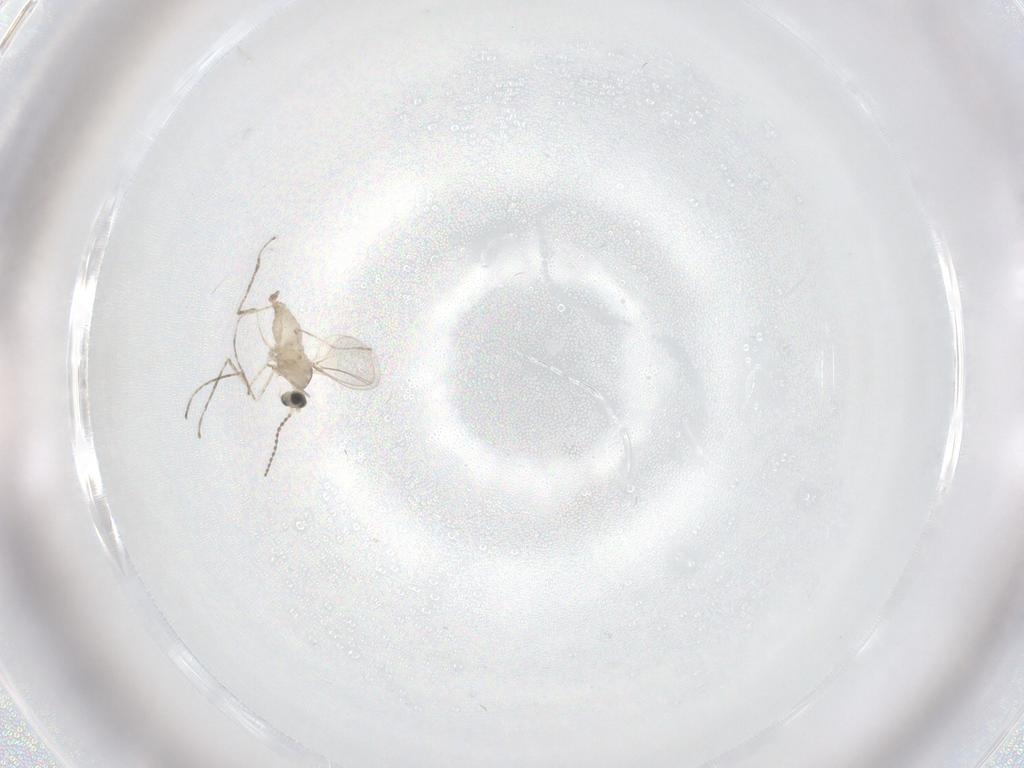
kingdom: Animalia
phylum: Arthropoda
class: Insecta
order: Diptera
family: Cecidomyiidae
